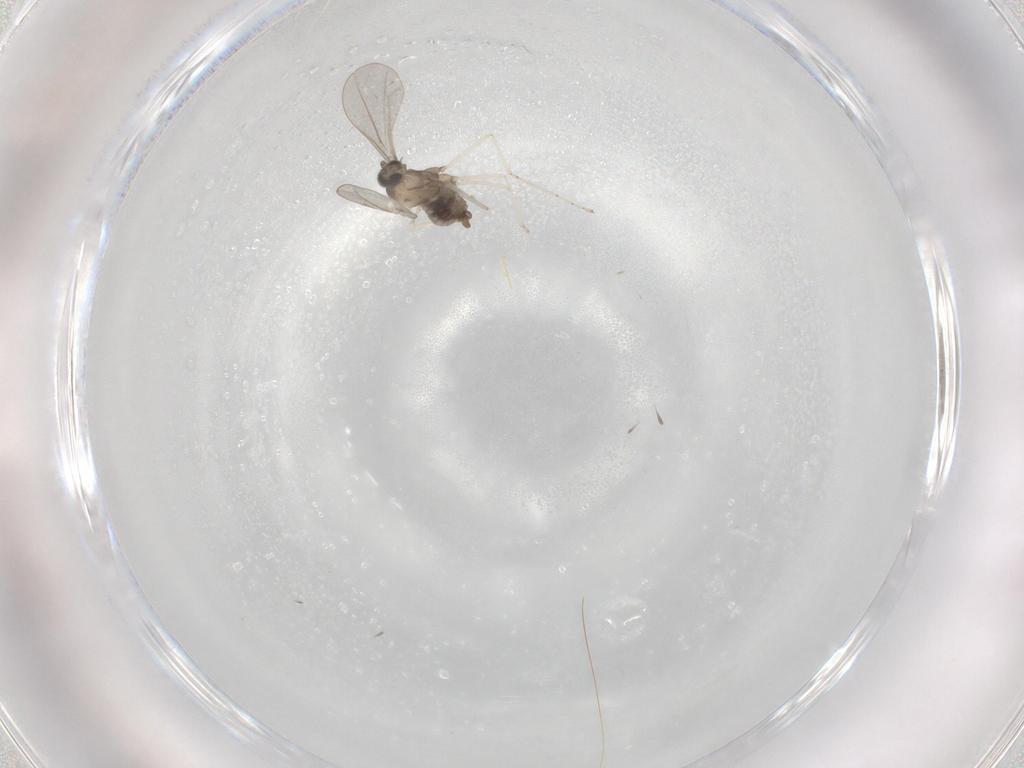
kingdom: Animalia
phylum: Arthropoda
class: Insecta
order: Diptera
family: Cecidomyiidae
